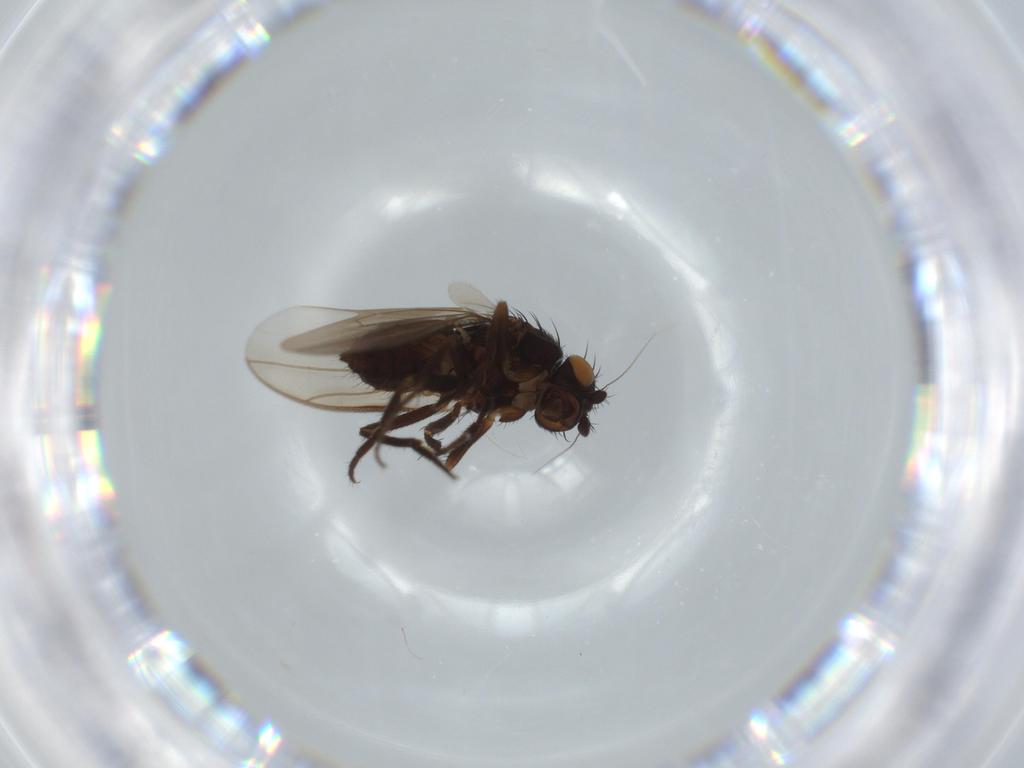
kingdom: Animalia
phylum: Arthropoda
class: Insecta
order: Diptera
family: Sphaeroceridae
